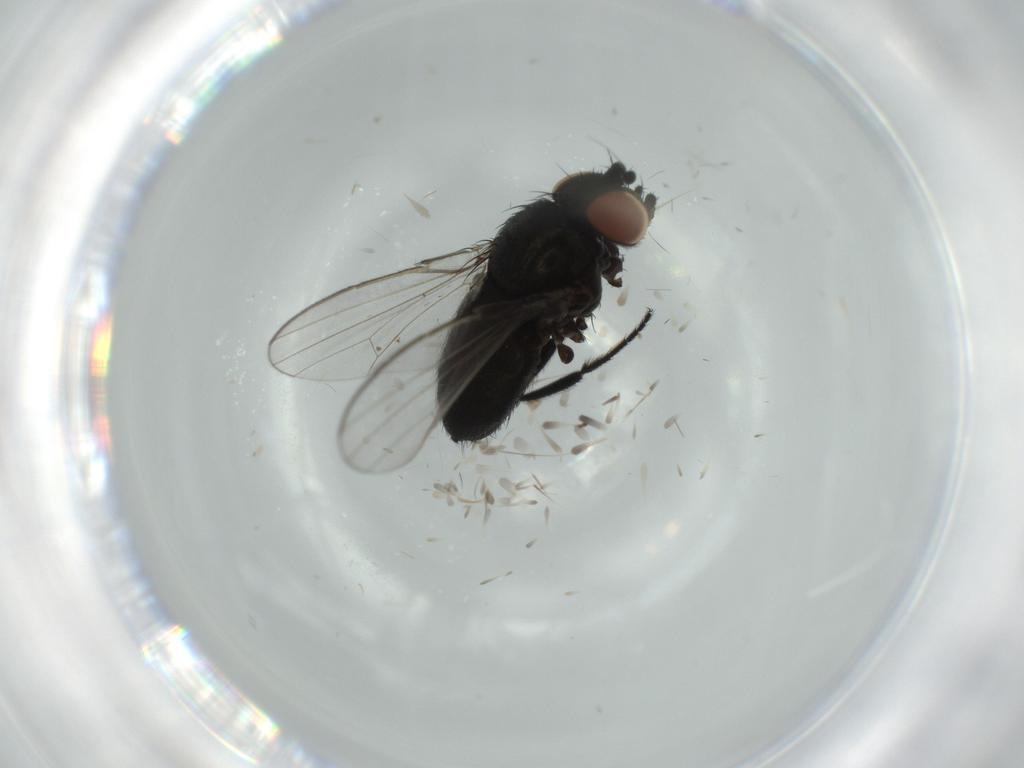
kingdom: Animalia
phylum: Arthropoda
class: Insecta
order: Diptera
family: Milichiidae
